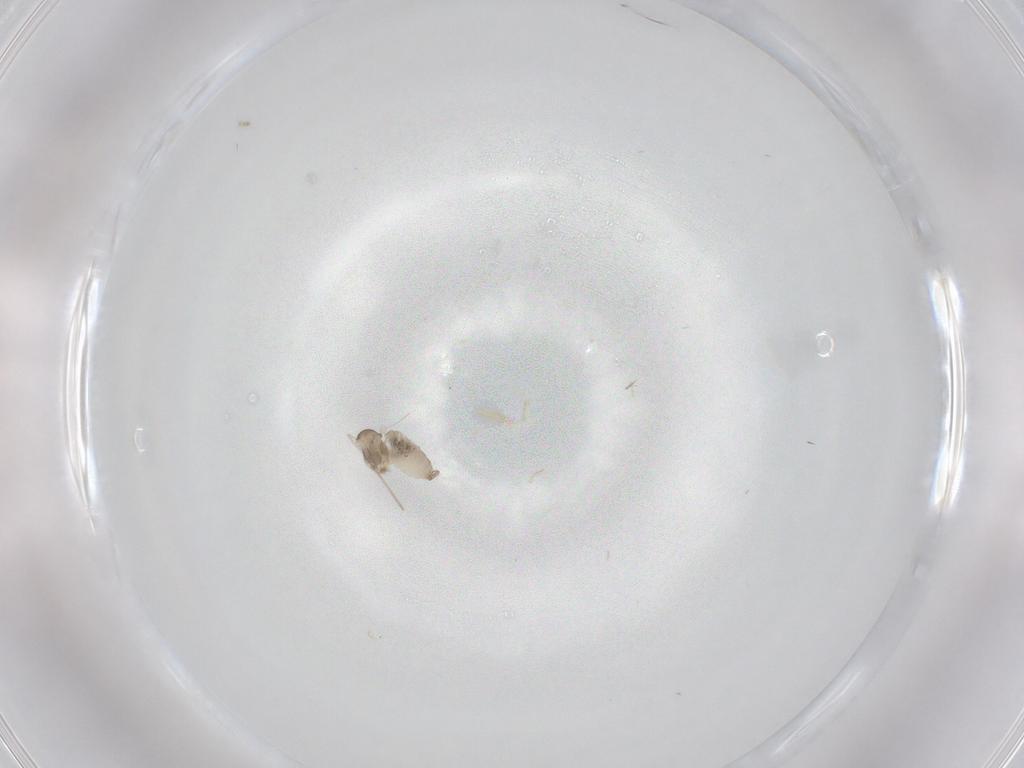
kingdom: Animalia
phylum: Arthropoda
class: Insecta
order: Diptera
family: Cecidomyiidae
